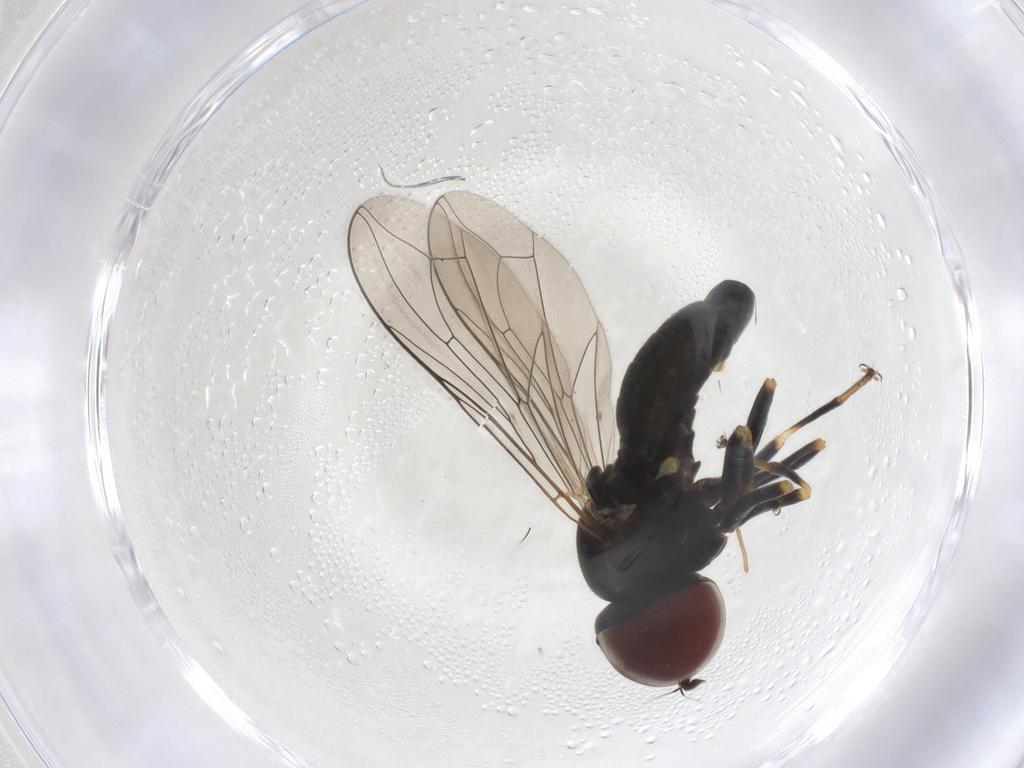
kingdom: Animalia
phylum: Arthropoda
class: Insecta
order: Diptera
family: Pipunculidae
